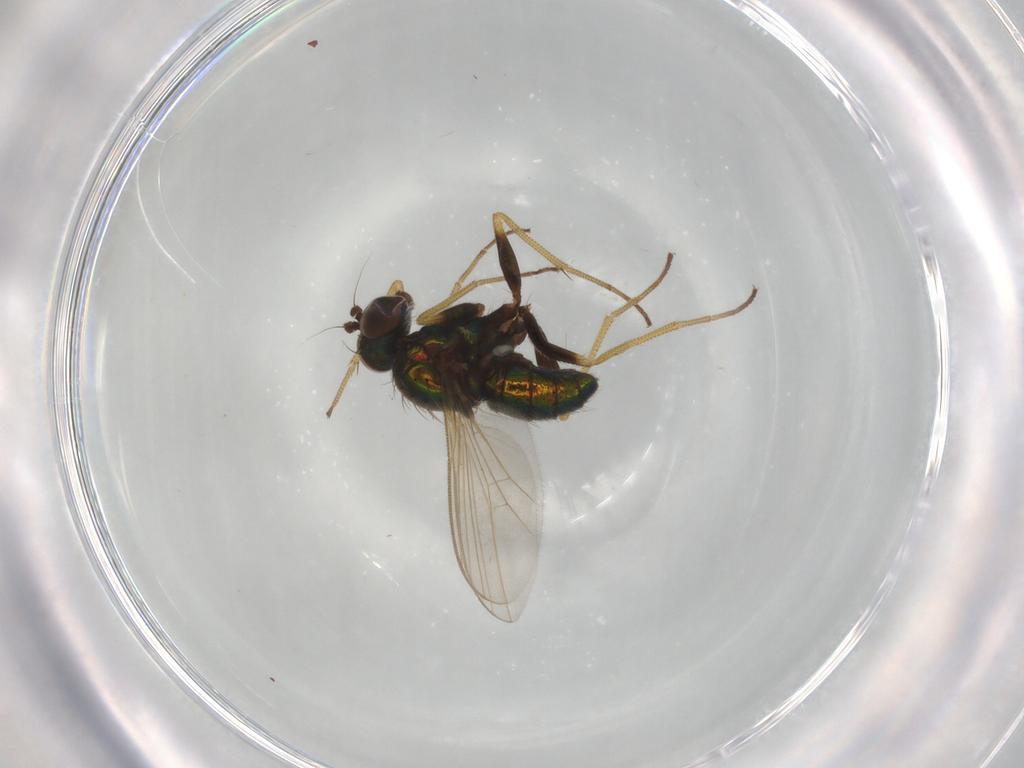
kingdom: Animalia
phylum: Arthropoda
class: Insecta
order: Diptera
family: Dolichopodidae
